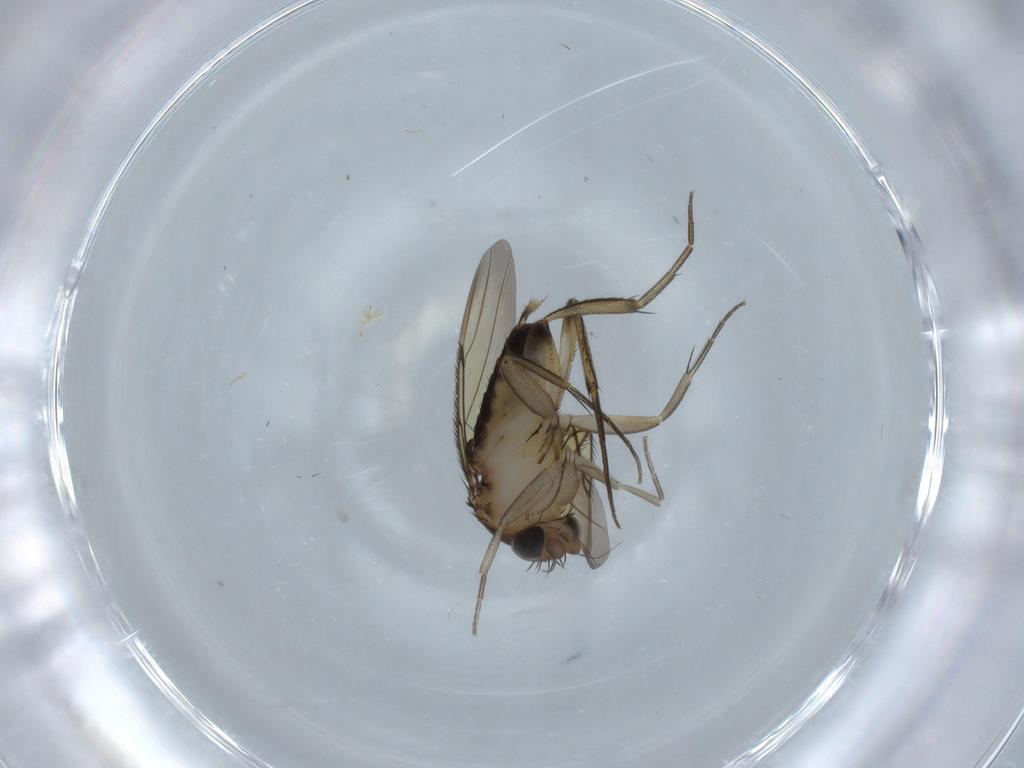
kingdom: Animalia
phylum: Arthropoda
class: Insecta
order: Diptera
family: Phoridae
